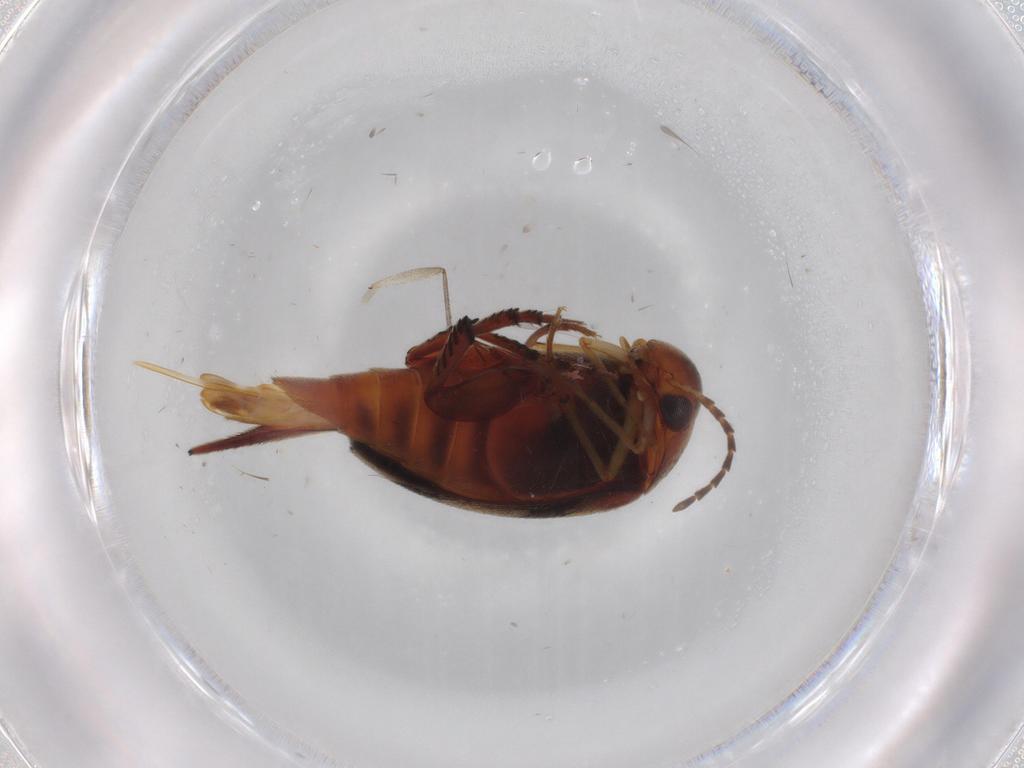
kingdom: Animalia
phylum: Arthropoda
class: Insecta
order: Coleoptera
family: Mordellidae
